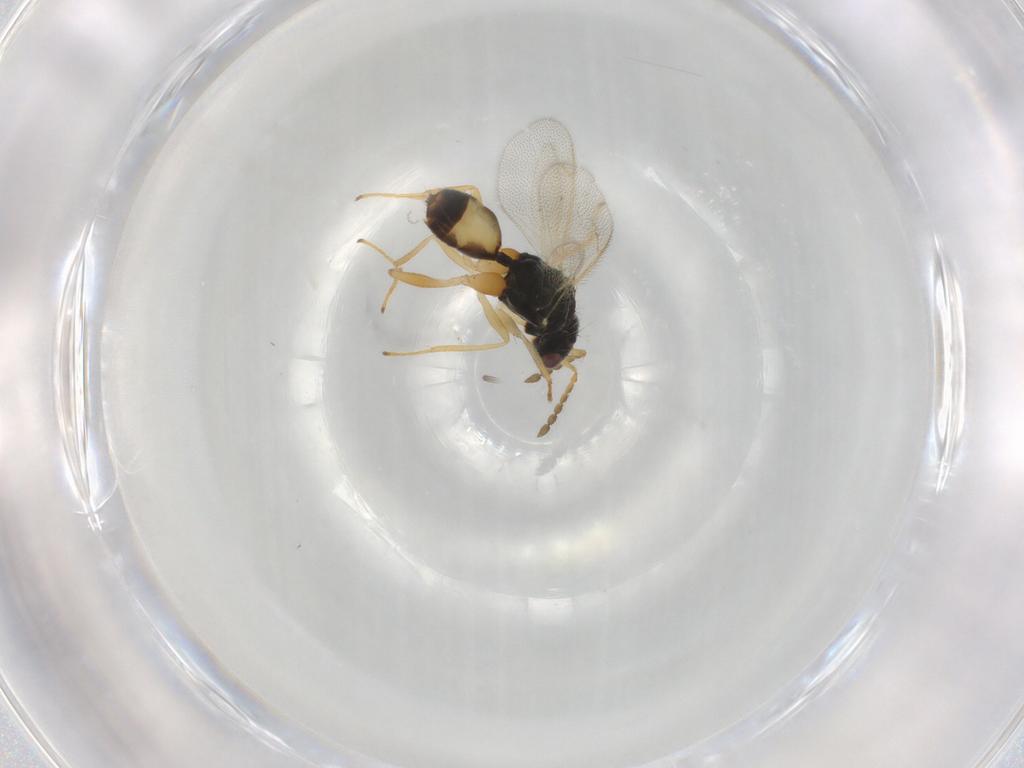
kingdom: Animalia
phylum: Arthropoda
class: Insecta
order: Hymenoptera
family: Eulophidae
